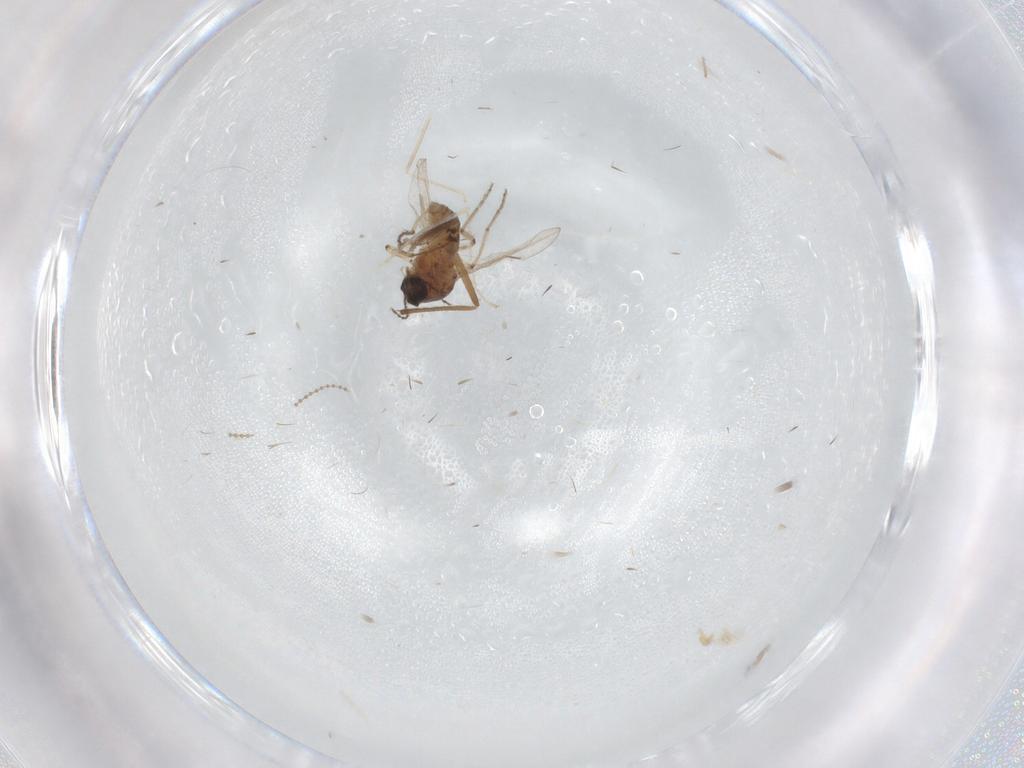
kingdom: Animalia
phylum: Arthropoda
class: Insecta
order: Diptera
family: Ceratopogonidae
